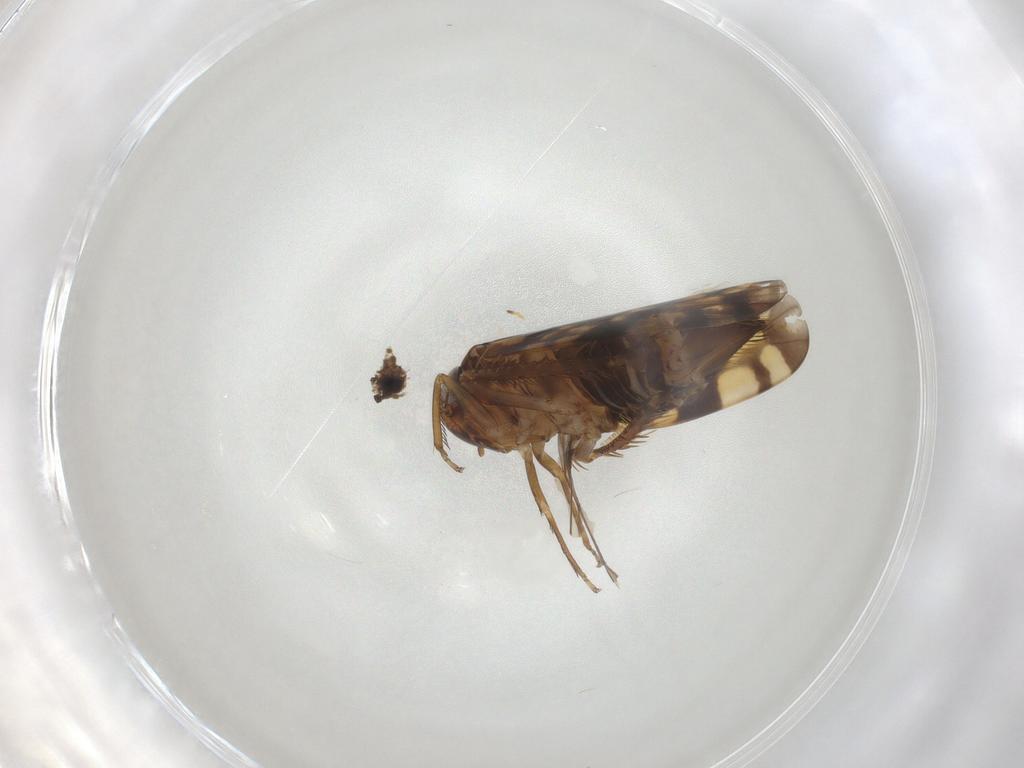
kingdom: Animalia
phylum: Arthropoda
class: Insecta
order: Hemiptera
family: Cicadellidae
